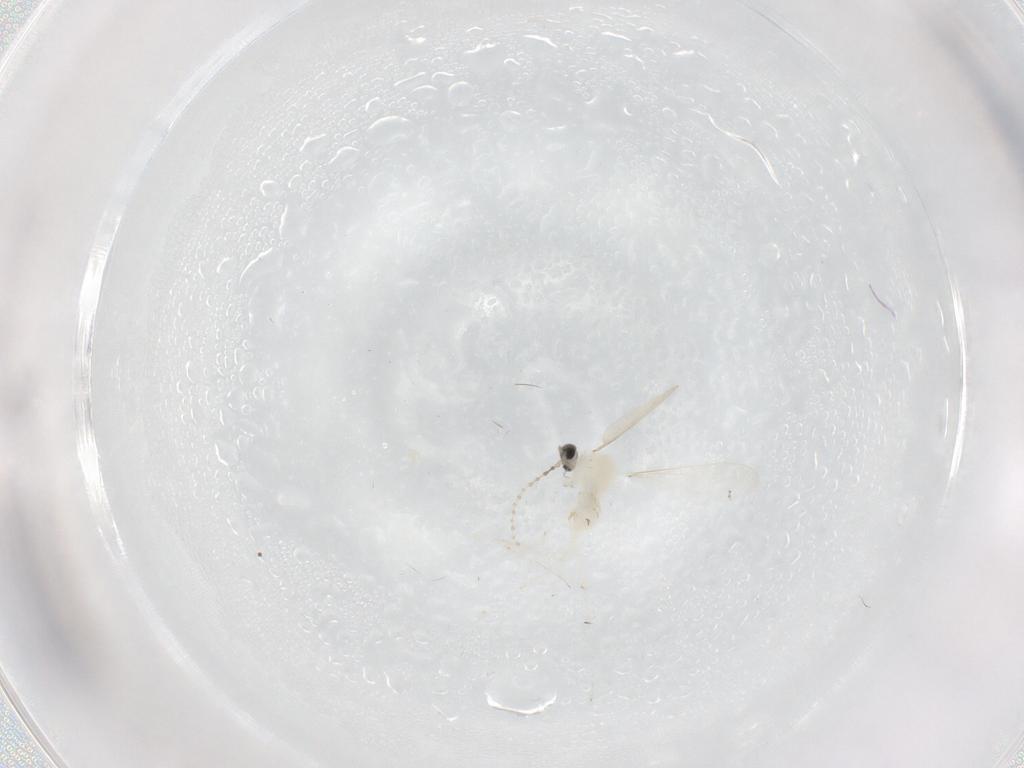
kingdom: Animalia
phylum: Arthropoda
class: Insecta
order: Diptera
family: Cecidomyiidae
